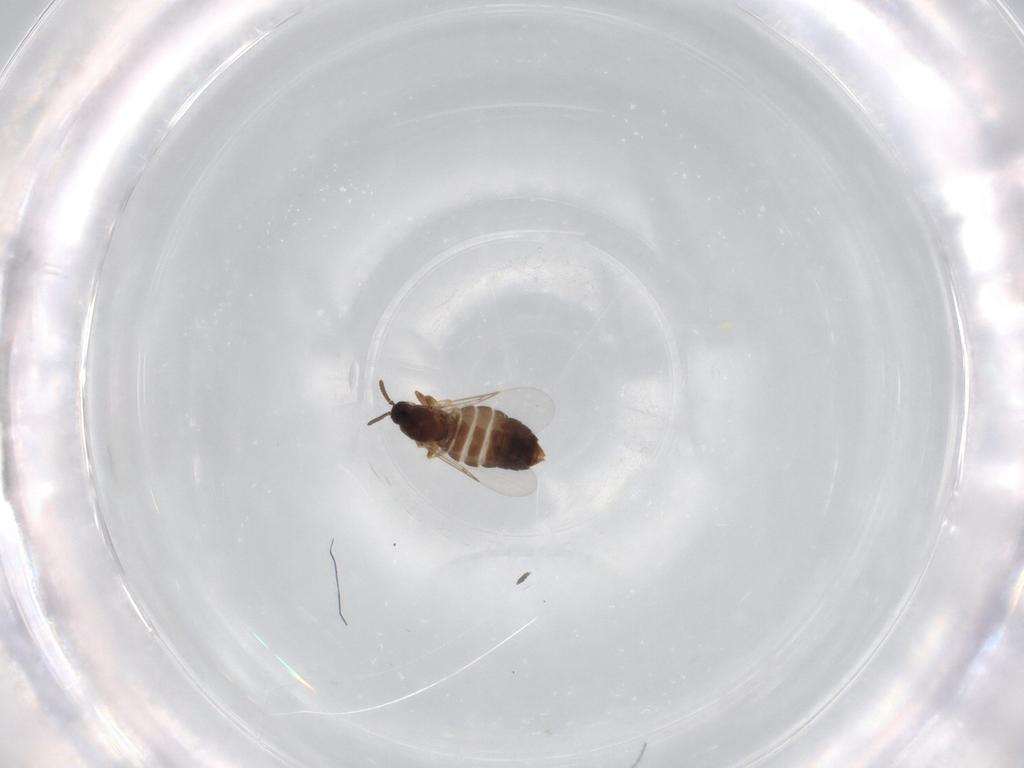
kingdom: Animalia
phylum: Arthropoda
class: Insecta
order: Diptera
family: Scatopsidae
